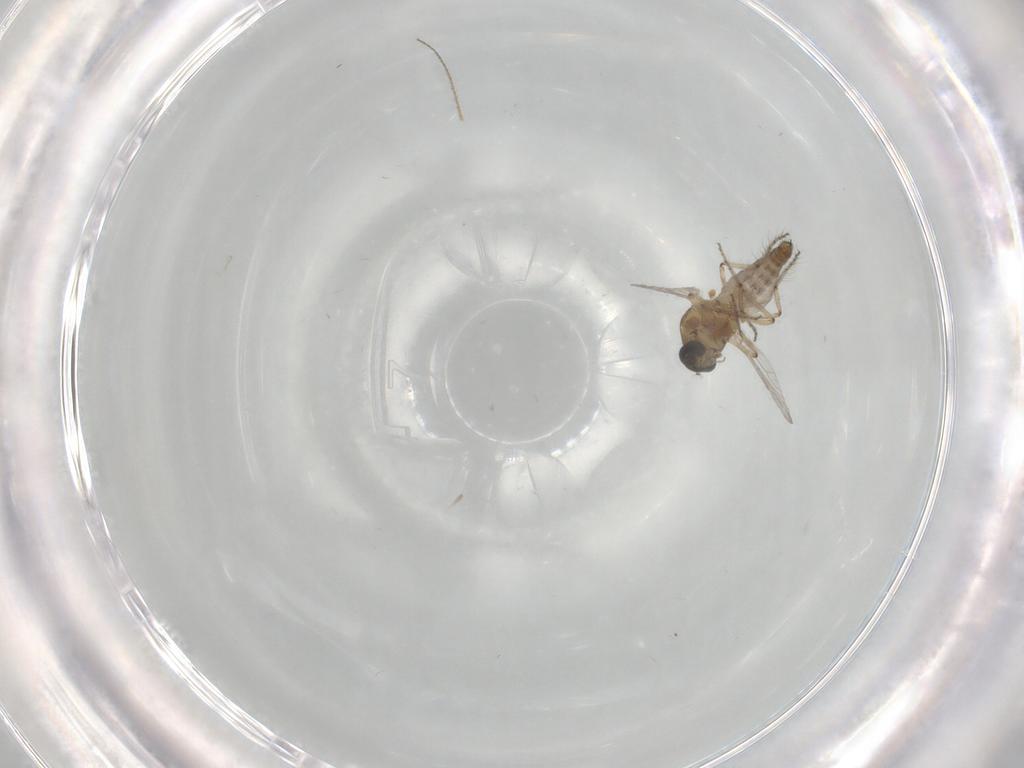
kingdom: Animalia
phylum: Arthropoda
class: Insecta
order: Diptera
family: Ceratopogonidae
